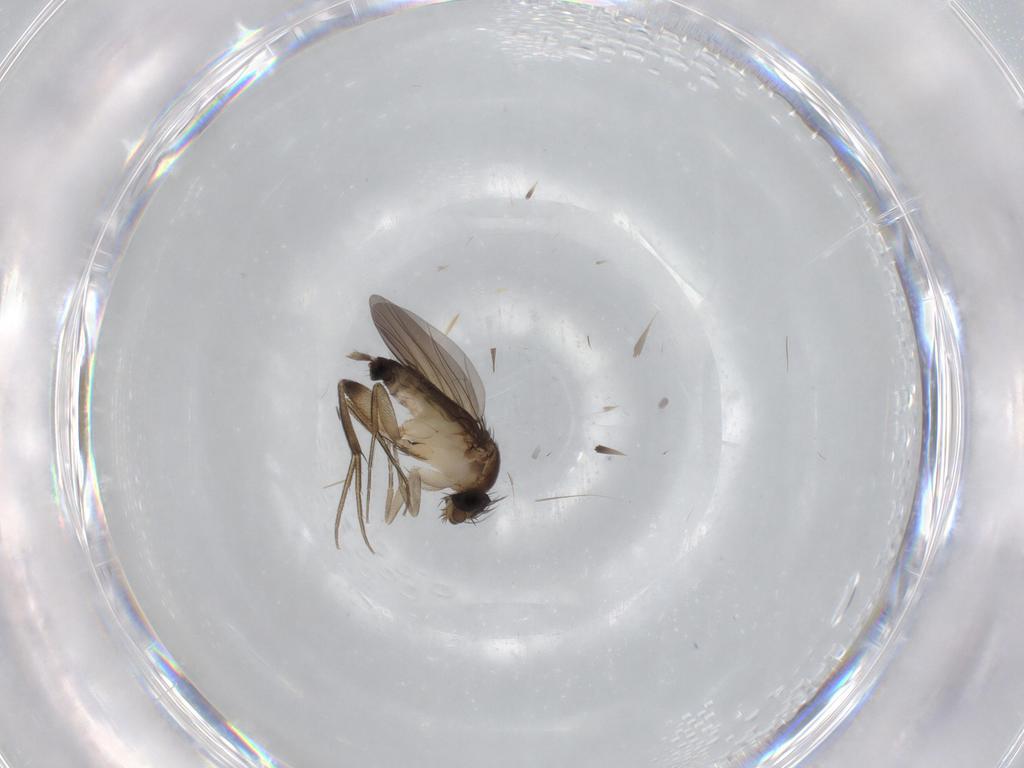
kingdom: Animalia
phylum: Arthropoda
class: Insecta
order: Diptera
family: Phoridae
